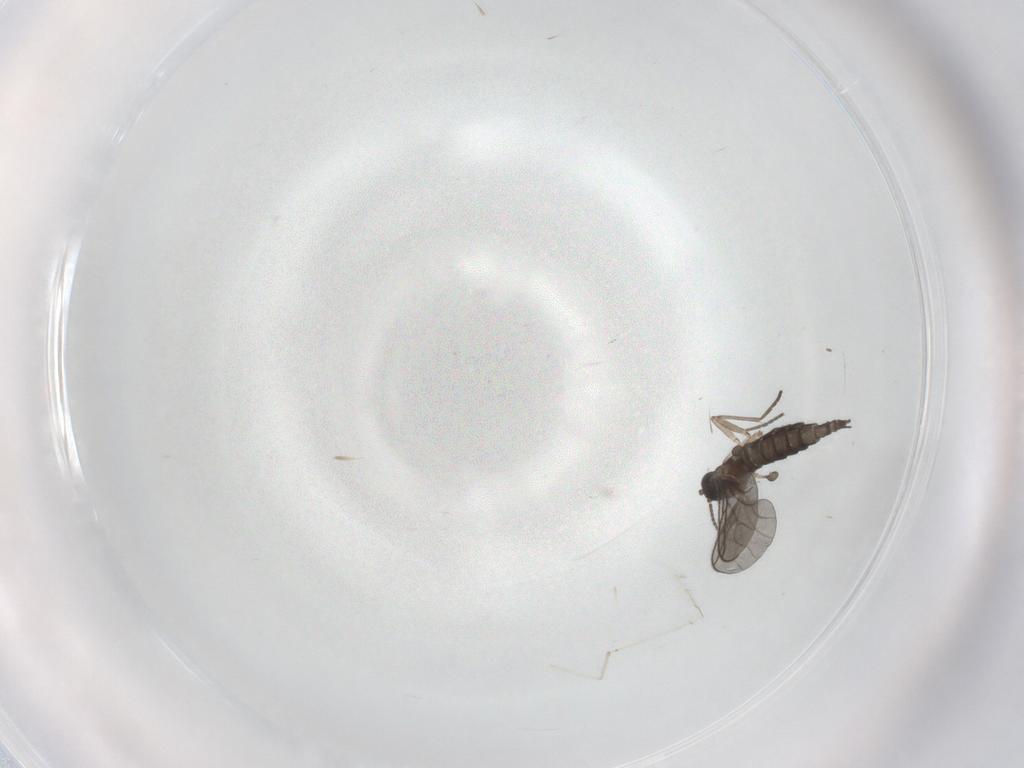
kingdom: Animalia
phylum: Arthropoda
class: Insecta
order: Diptera
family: Sciaridae
